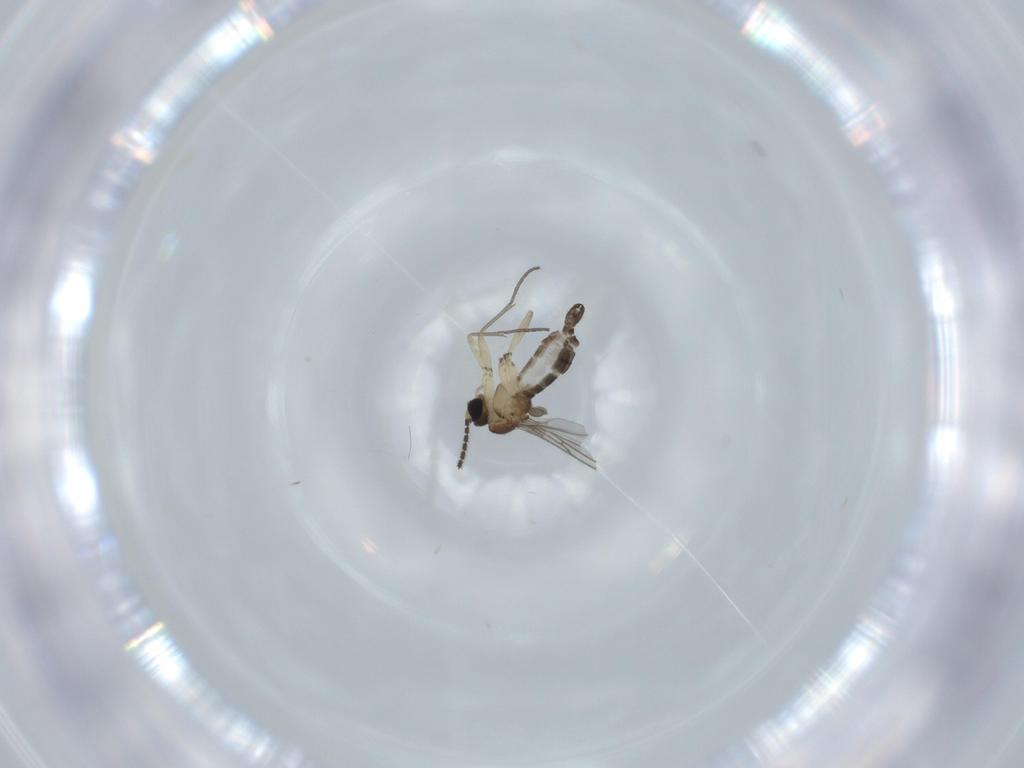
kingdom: Animalia
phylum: Arthropoda
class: Insecta
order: Diptera
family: Sciaridae
